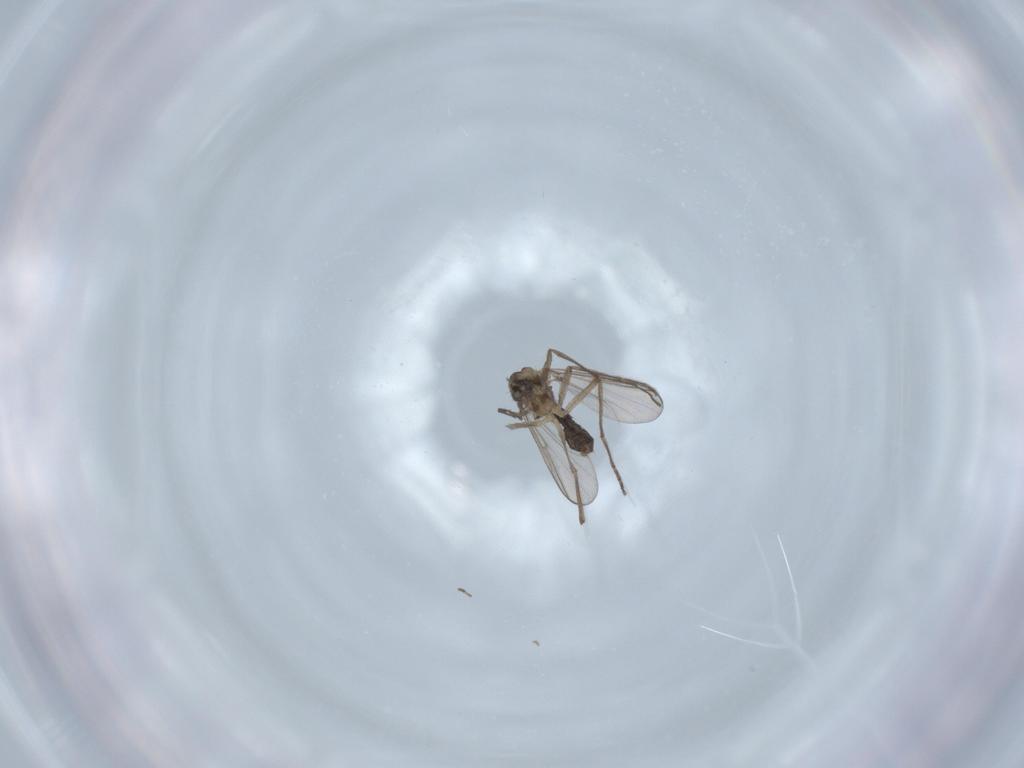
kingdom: Animalia
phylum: Arthropoda
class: Insecta
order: Diptera
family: Chironomidae
